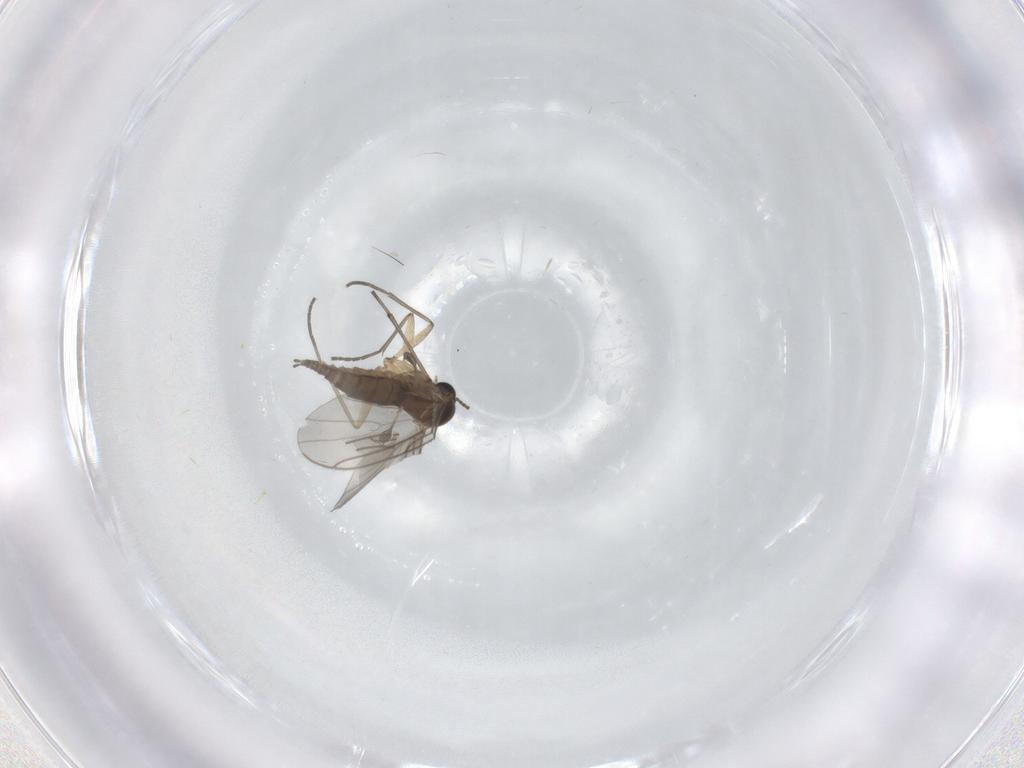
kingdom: Animalia
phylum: Arthropoda
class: Insecta
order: Diptera
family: Sciaridae
